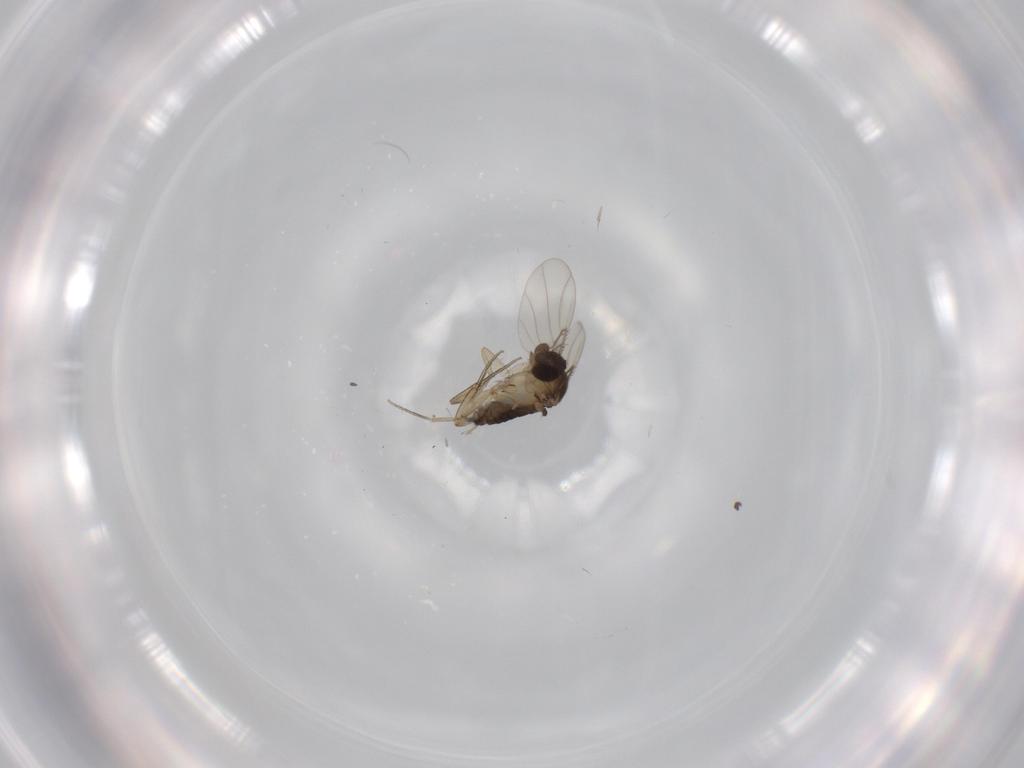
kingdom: Animalia
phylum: Arthropoda
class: Insecta
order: Diptera
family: Phoridae
